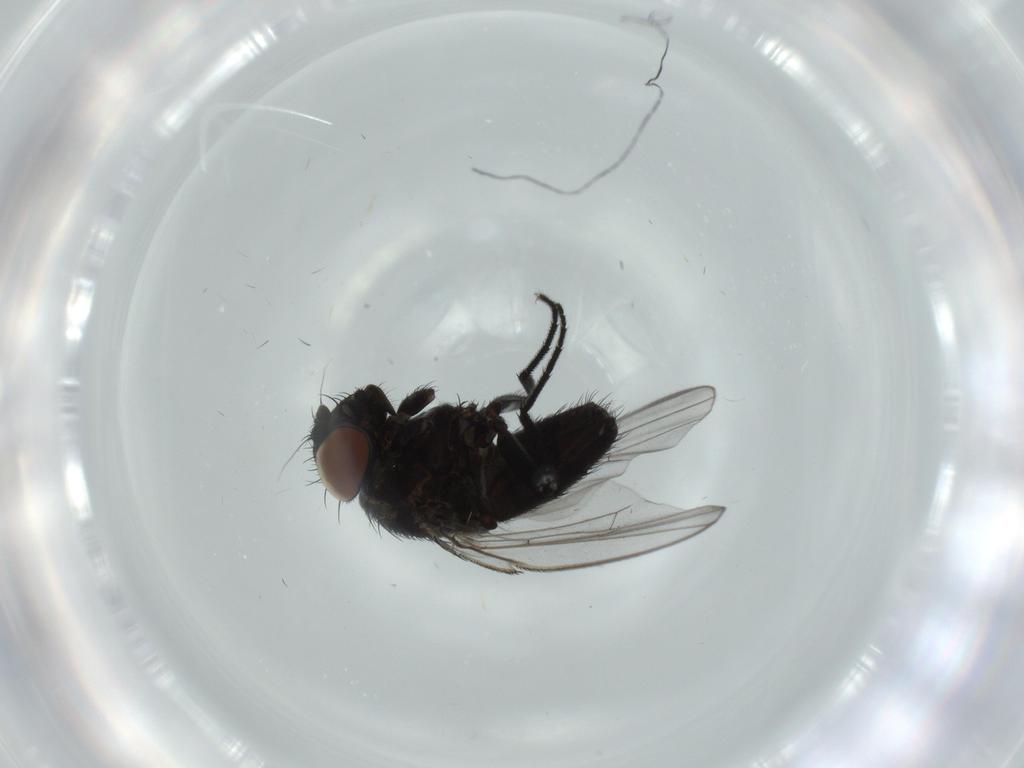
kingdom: Animalia
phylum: Arthropoda
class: Insecta
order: Diptera
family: Milichiidae
